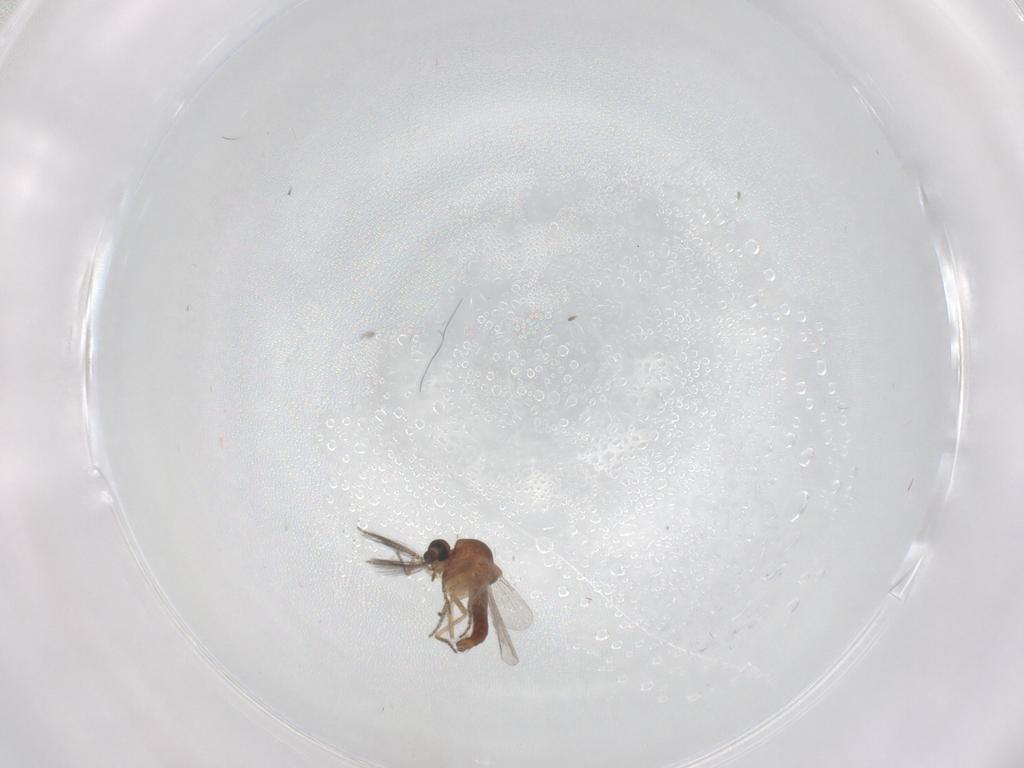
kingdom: Animalia
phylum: Arthropoda
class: Insecta
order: Diptera
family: Ceratopogonidae
